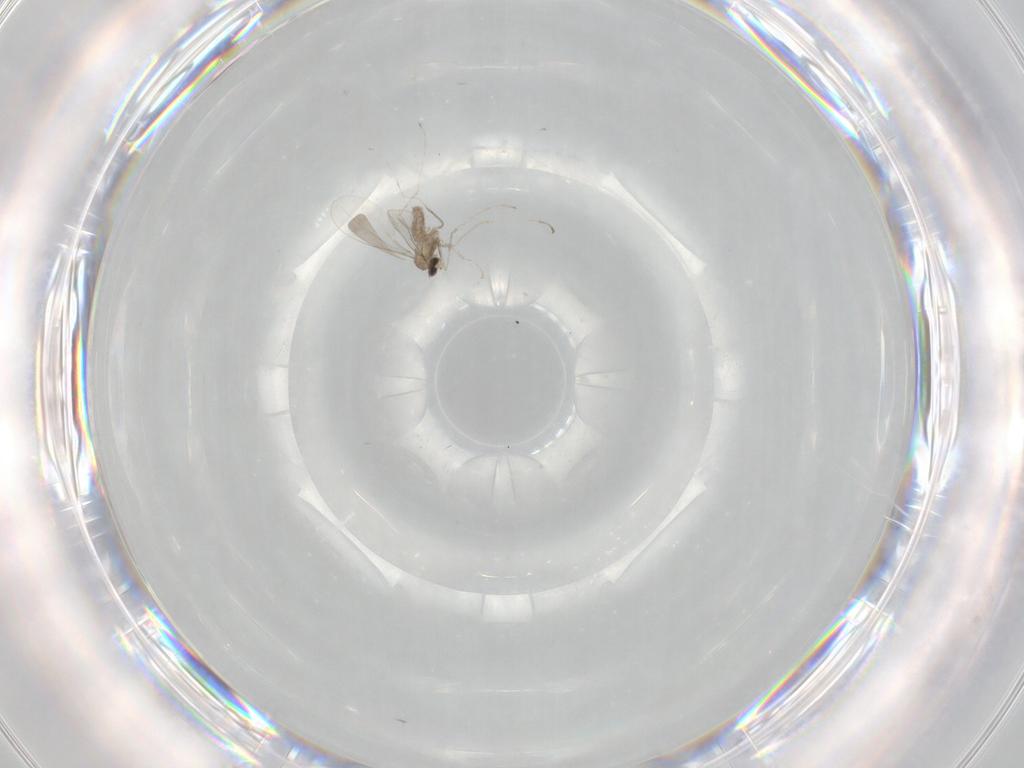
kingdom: Animalia
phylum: Arthropoda
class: Insecta
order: Diptera
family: Cecidomyiidae
